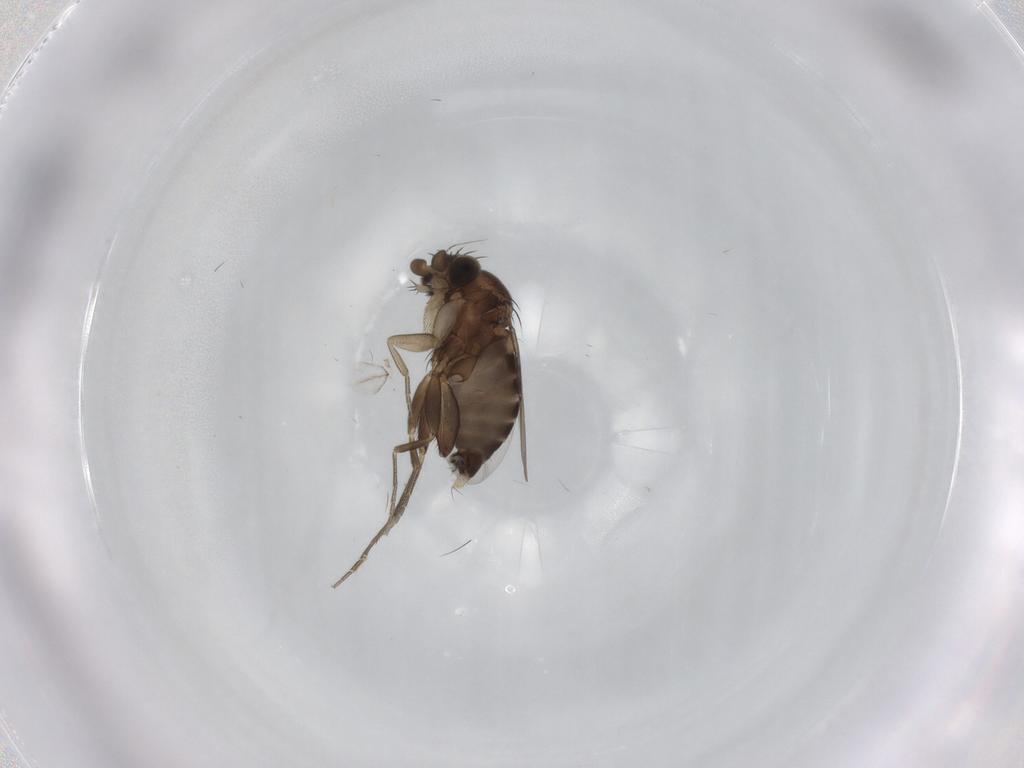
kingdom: Animalia
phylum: Arthropoda
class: Insecta
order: Diptera
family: Phoridae
